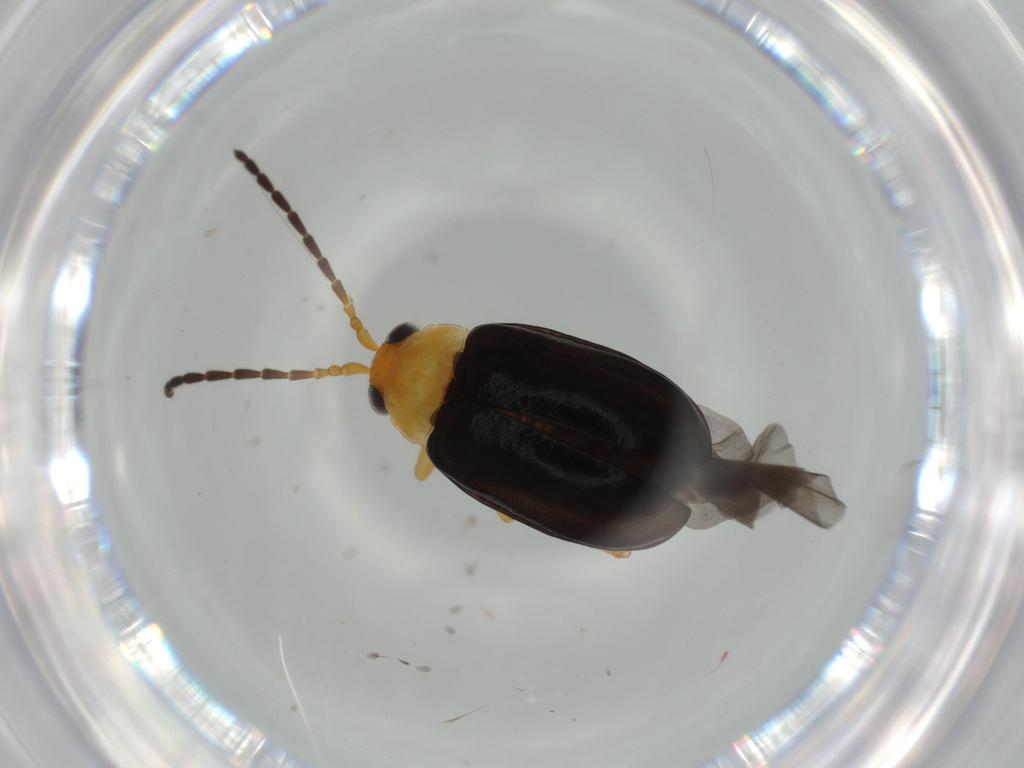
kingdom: Animalia
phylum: Arthropoda
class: Insecta
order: Coleoptera
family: Chrysomelidae
